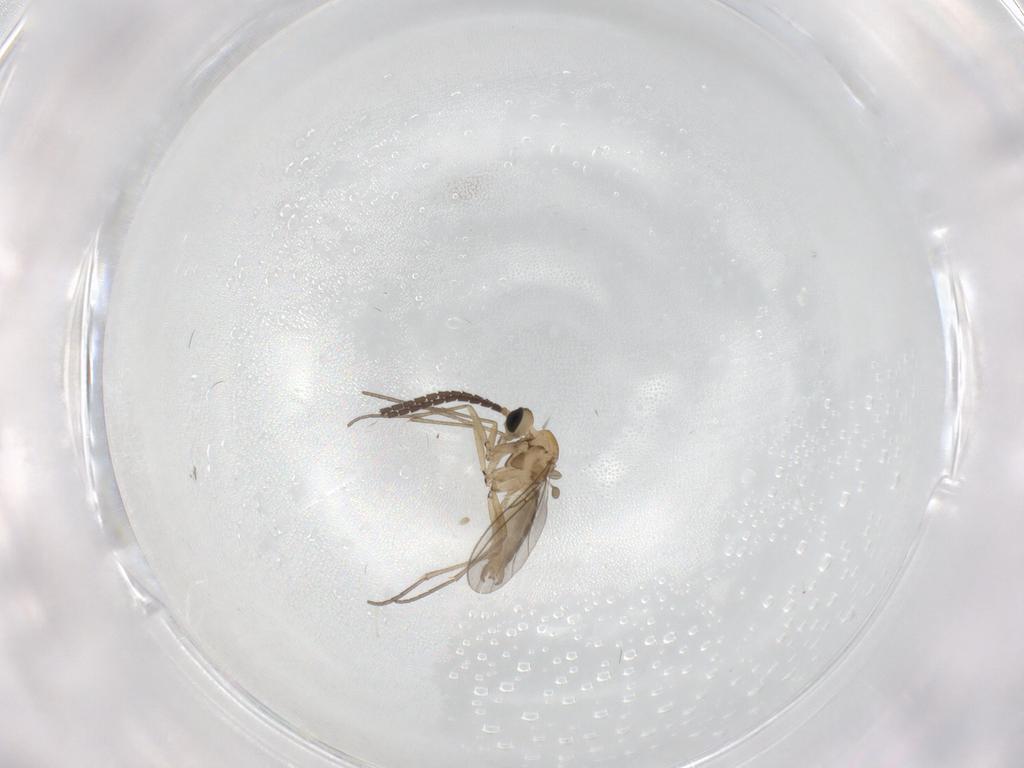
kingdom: Animalia
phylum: Arthropoda
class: Insecta
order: Diptera
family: Sciaridae
